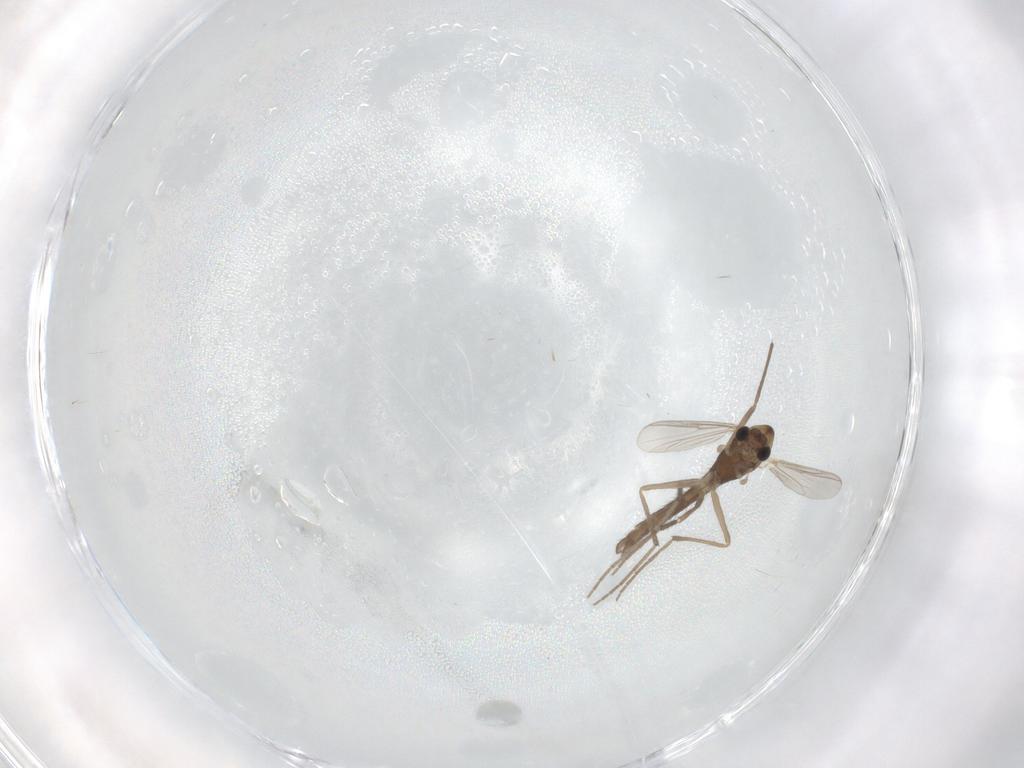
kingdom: Animalia
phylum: Arthropoda
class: Insecta
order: Diptera
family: Chironomidae
